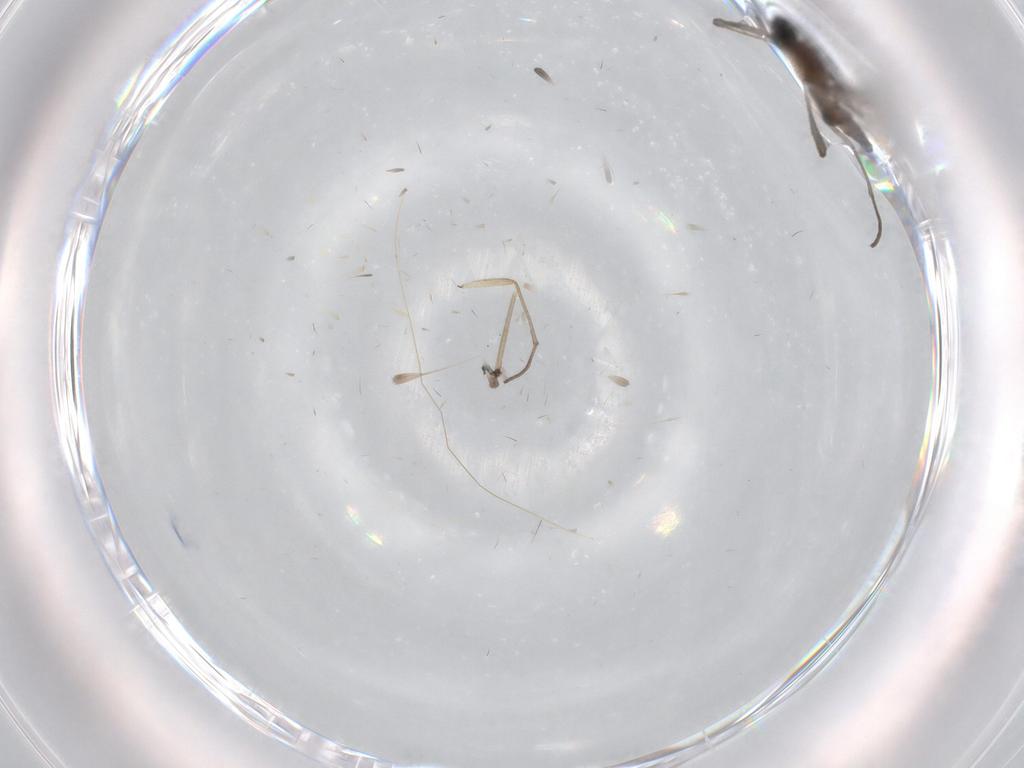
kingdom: Animalia
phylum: Arthropoda
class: Insecta
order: Diptera
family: Sciaridae
